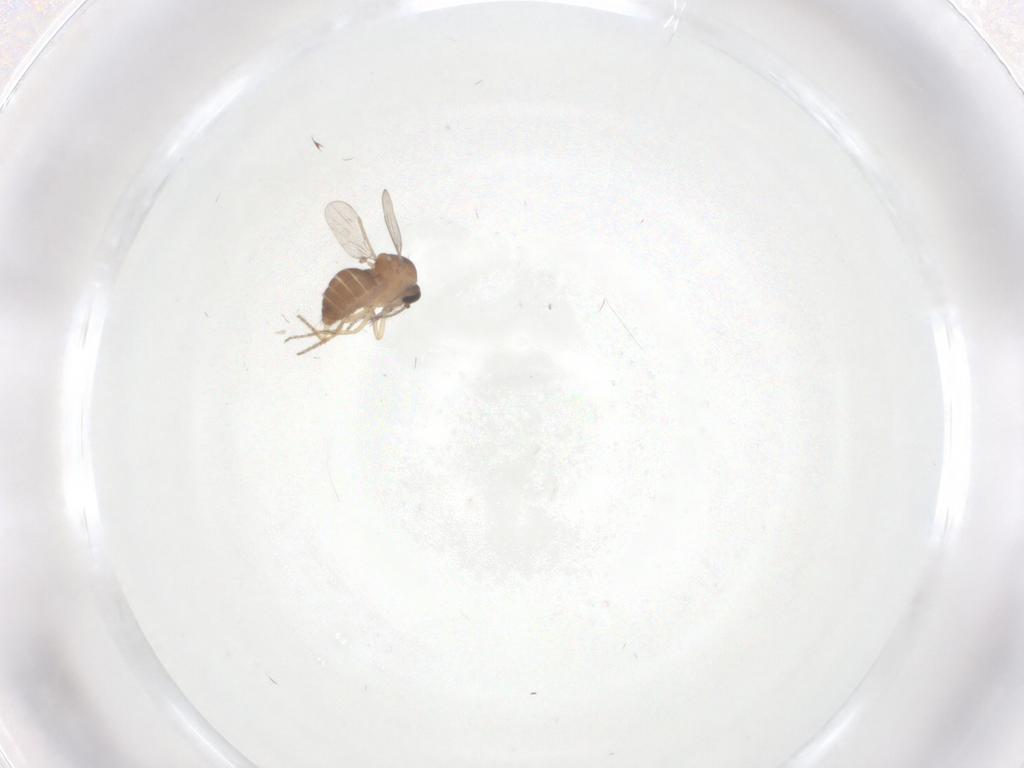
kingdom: Animalia
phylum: Arthropoda
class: Insecta
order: Diptera
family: Ceratopogonidae
